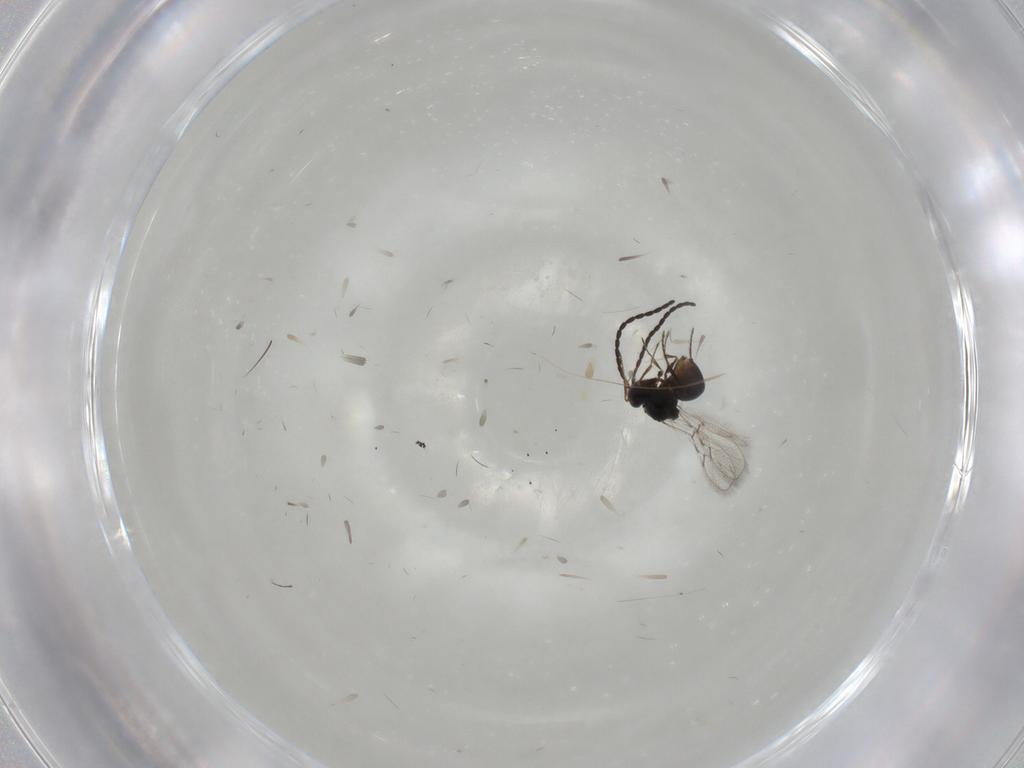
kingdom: Animalia
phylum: Arthropoda
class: Insecta
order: Hymenoptera
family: Figitidae
